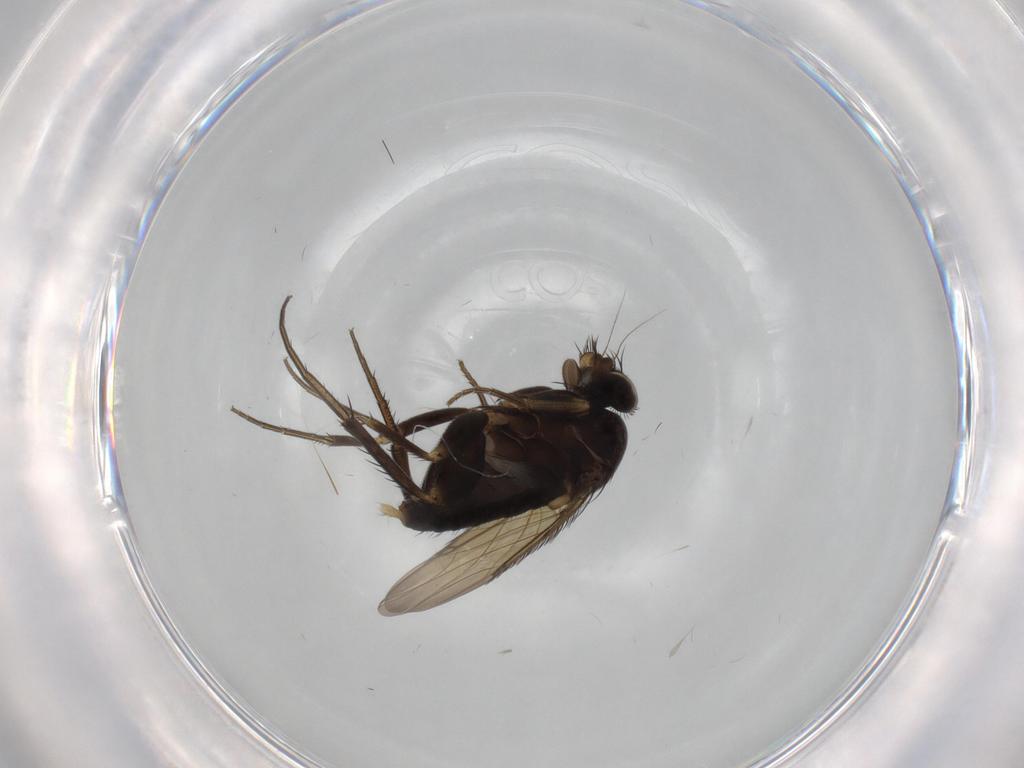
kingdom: Animalia
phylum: Arthropoda
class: Insecta
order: Diptera
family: Phoridae
